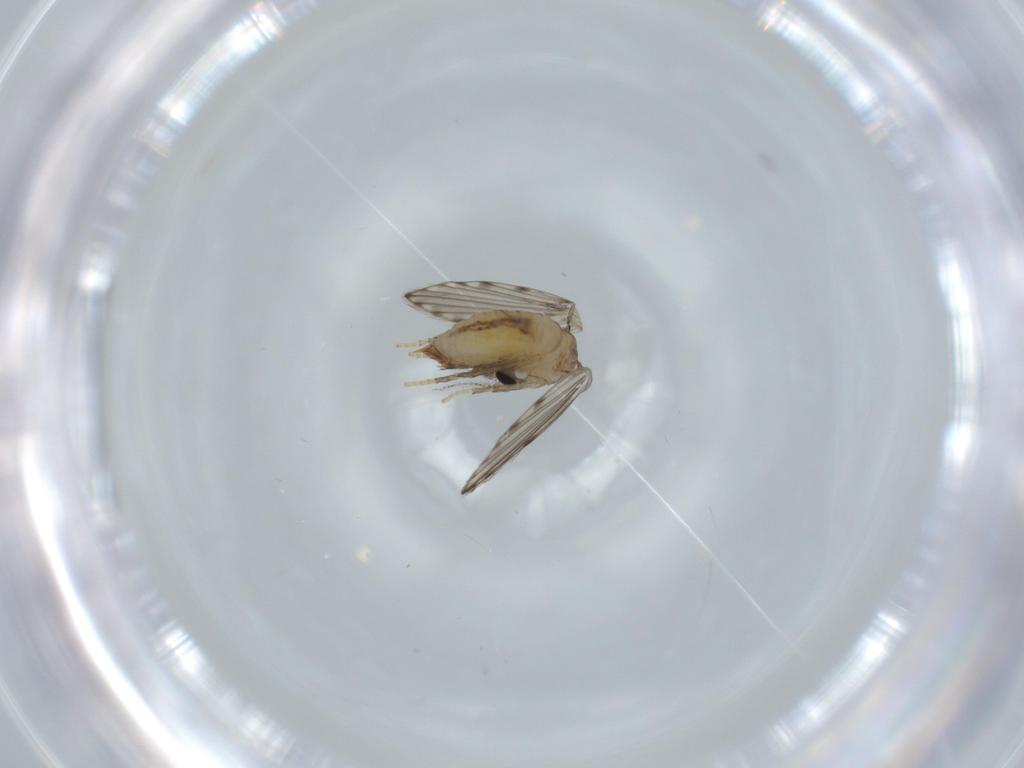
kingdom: Animalia
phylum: Arthropoda
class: Insecta
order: Diptera
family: Psychodidae
